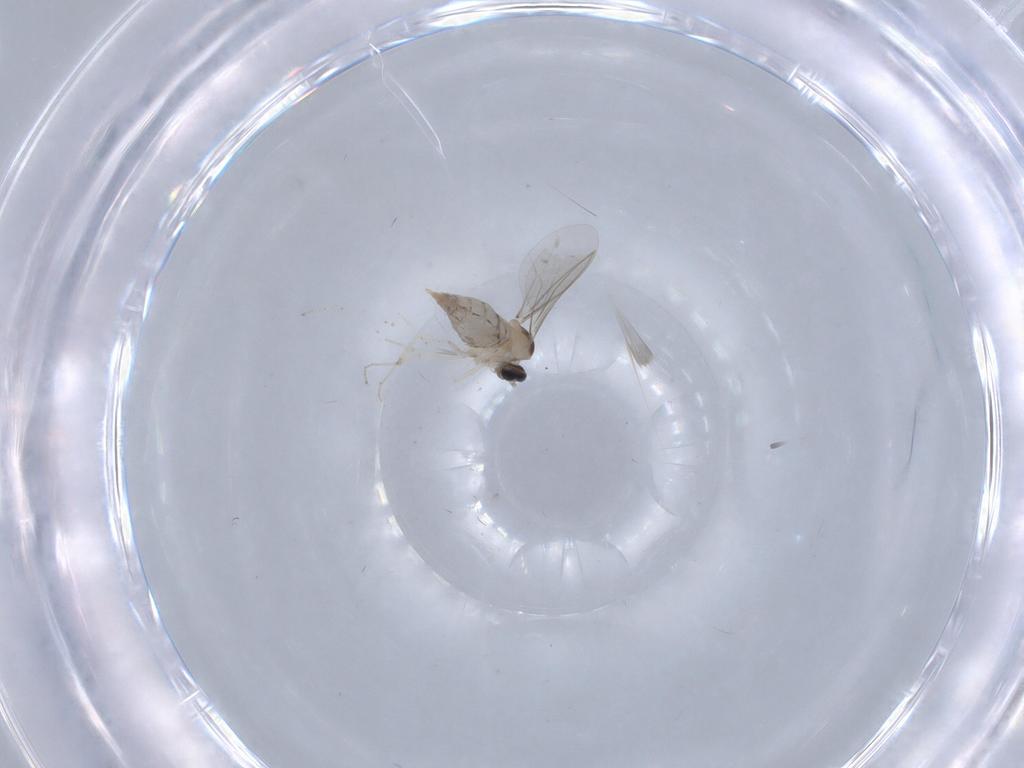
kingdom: Animalia
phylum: Arthropoda
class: Insecta
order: Diptera
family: Cecidomyiidae
